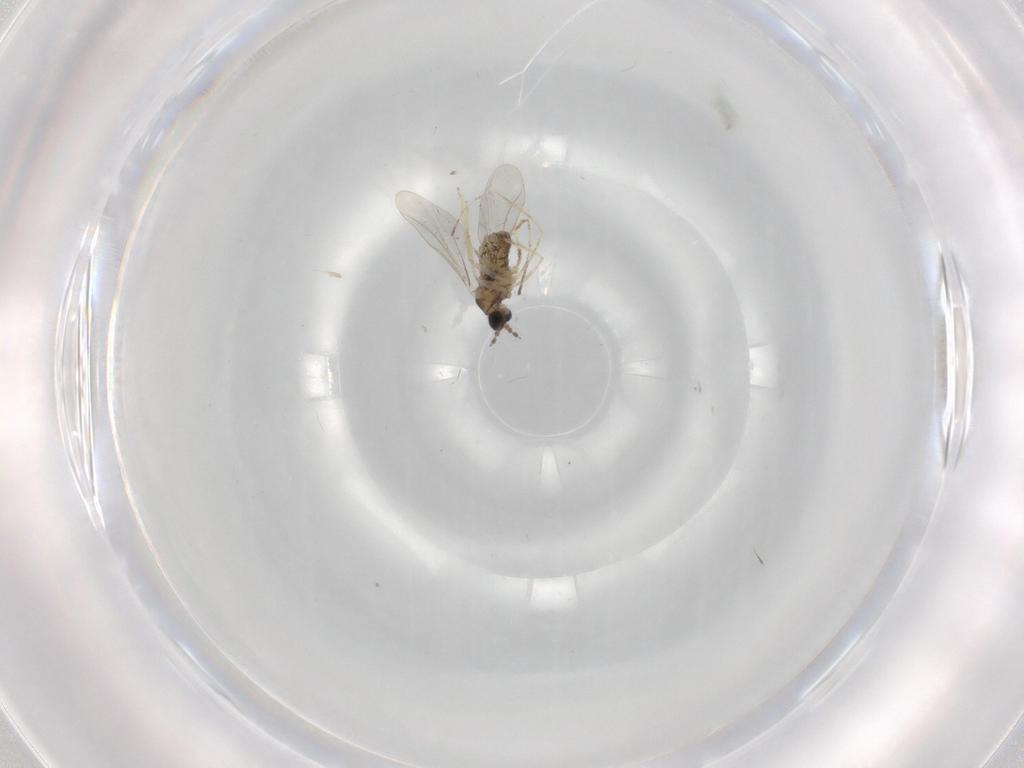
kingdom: Animalia
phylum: Arthropoda
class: Insecta
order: Diptera
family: Cecidomyiidae
